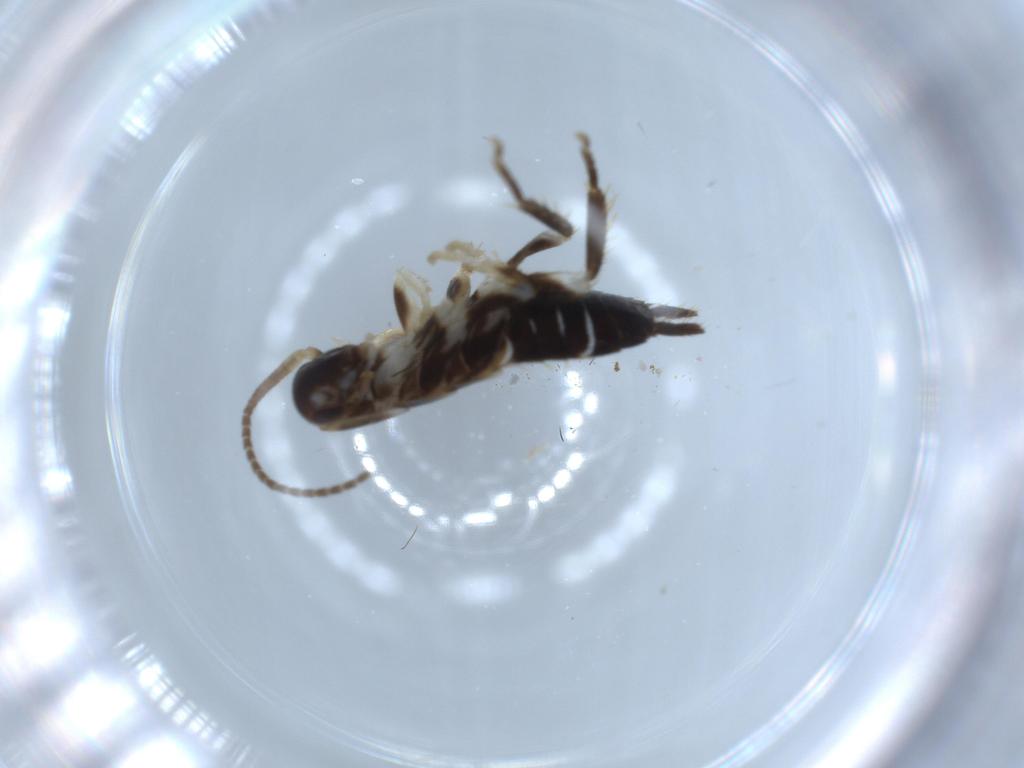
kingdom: Animalia
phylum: Arthropoda
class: Insecta
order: Blattodea
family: Ectobiidae
